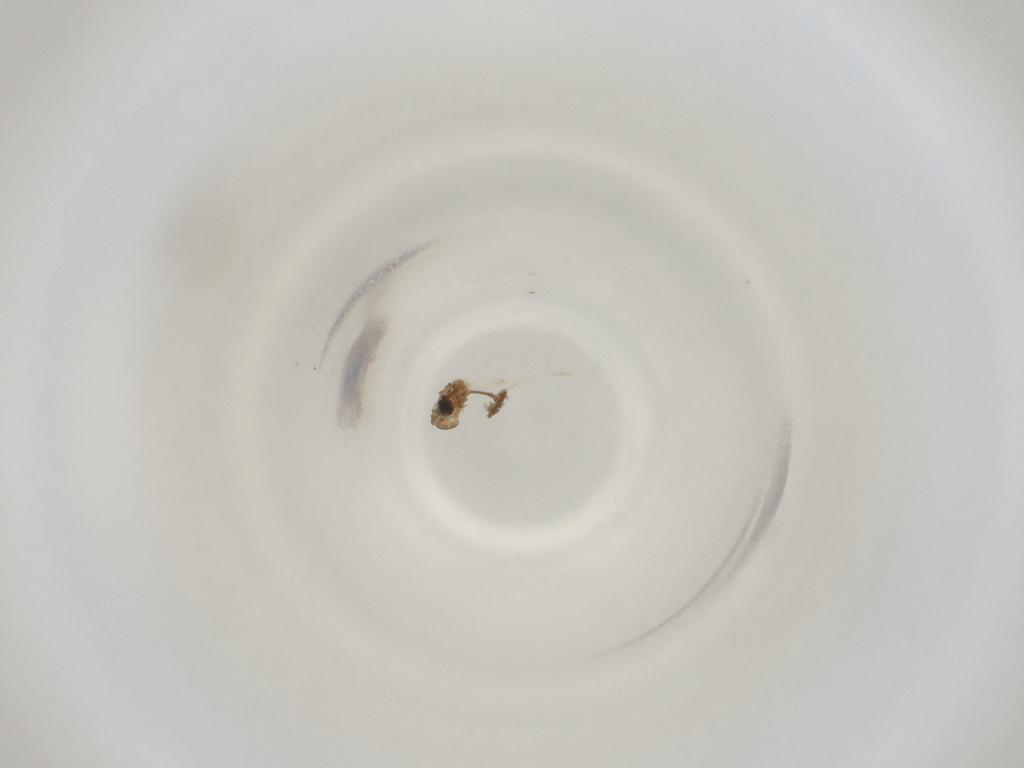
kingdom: Animalia
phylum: Arthropoda
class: Insecta
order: Diptera
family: Cecidomyiidae
